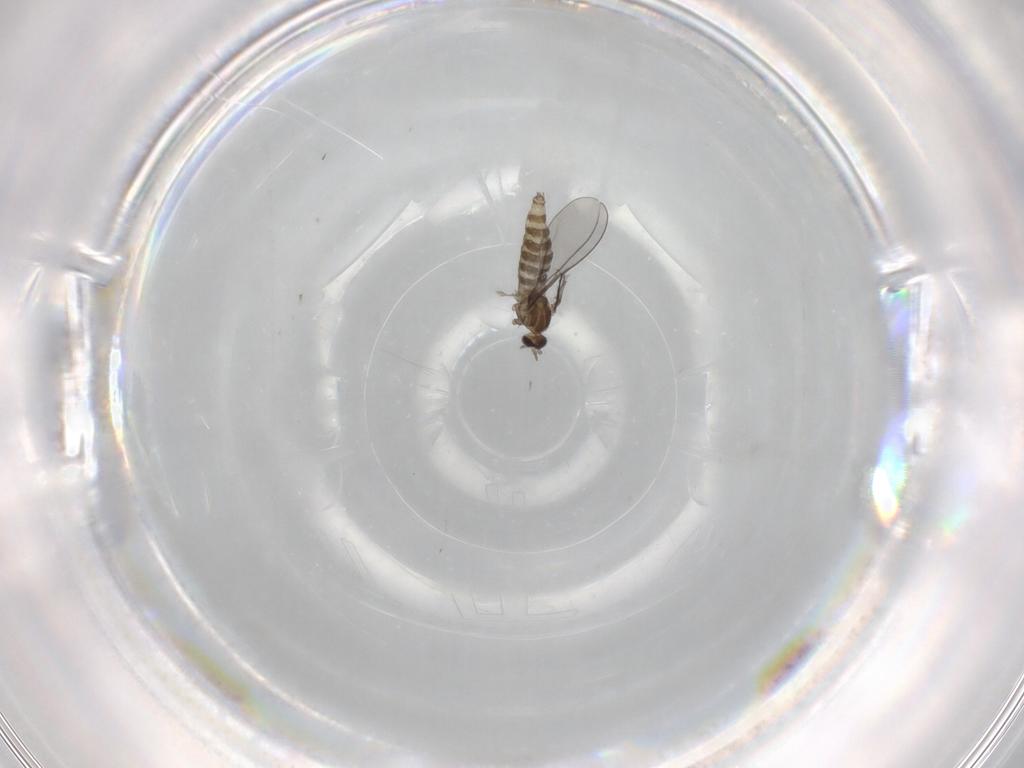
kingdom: Animalia
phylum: Arthropoda
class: Insecta
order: Diptera
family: Cecidomyiidae
